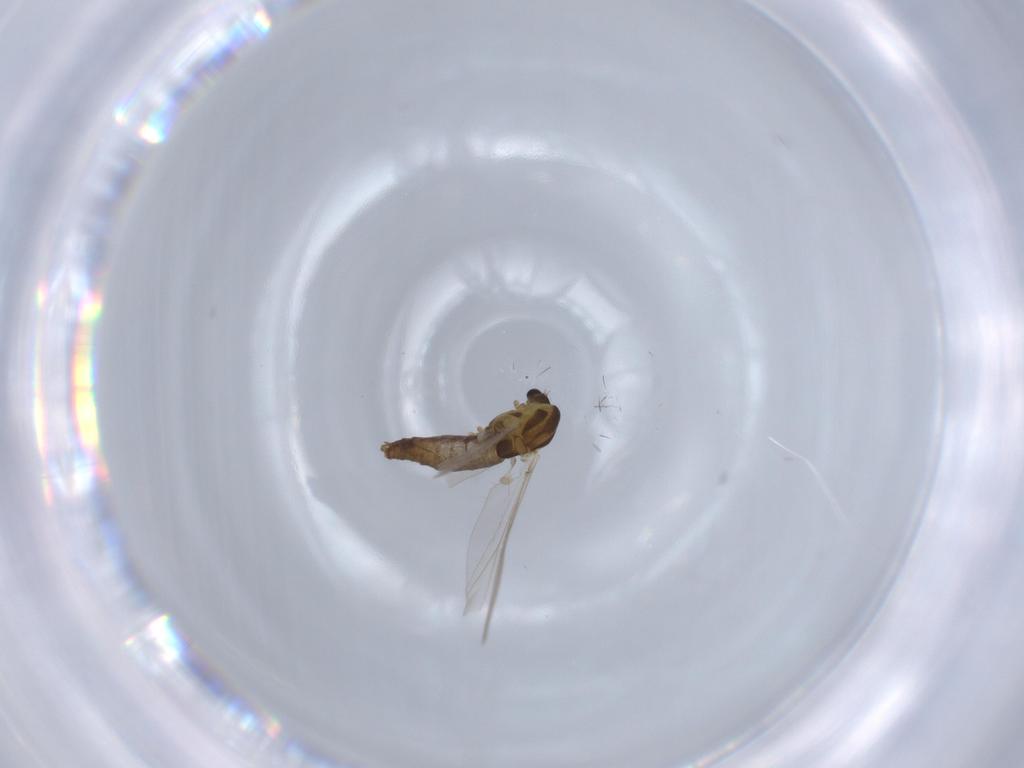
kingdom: Animalia
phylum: Arthropoda
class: Insecta
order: Diptera
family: Chironomidae
